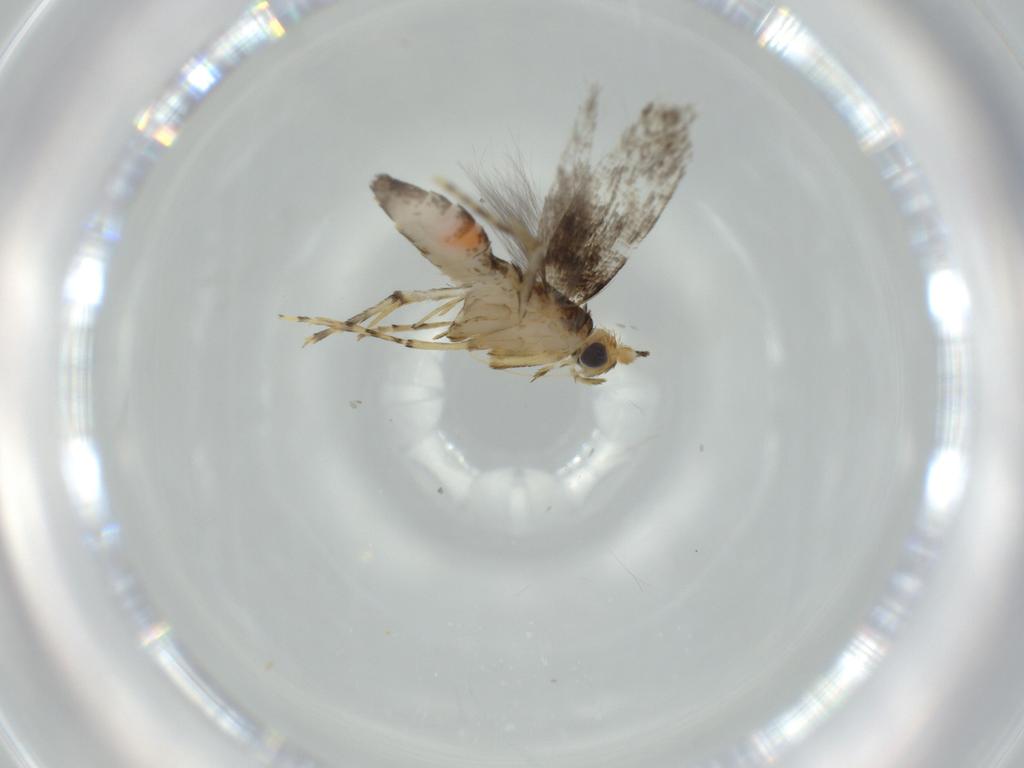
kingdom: Animalia
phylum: Arthropoda
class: Insecta
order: Lepidoptera
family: Argyresthiidae
